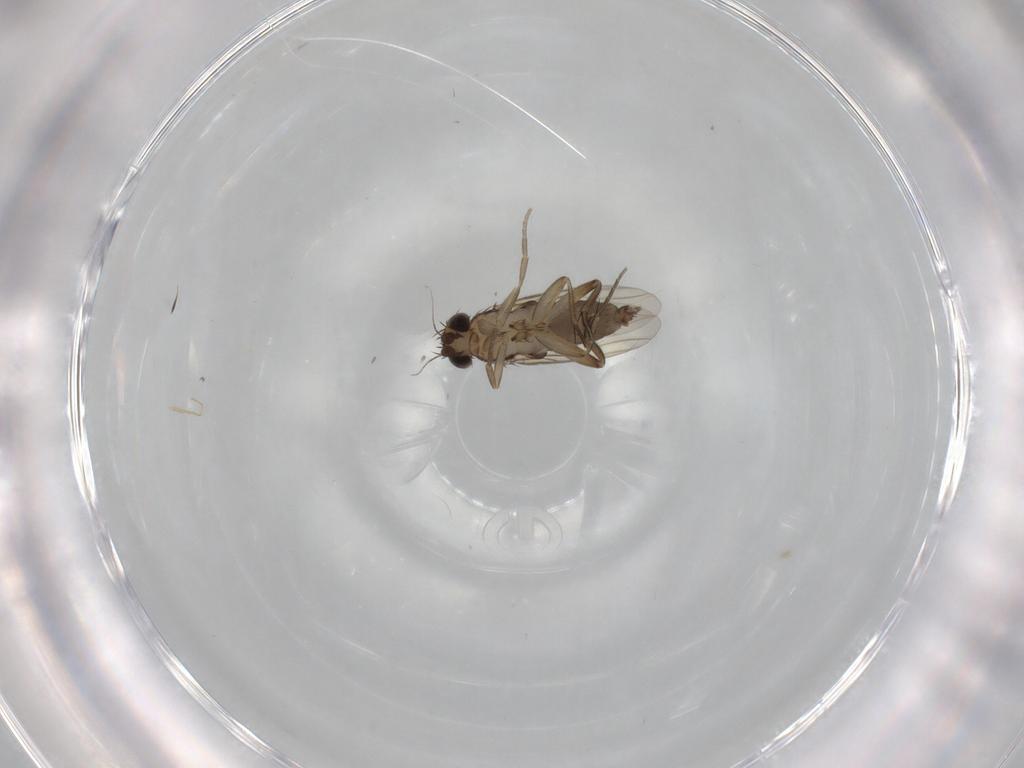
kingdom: Animalia
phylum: Arthropoda
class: Insecta
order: Diptera
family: Phoridae
